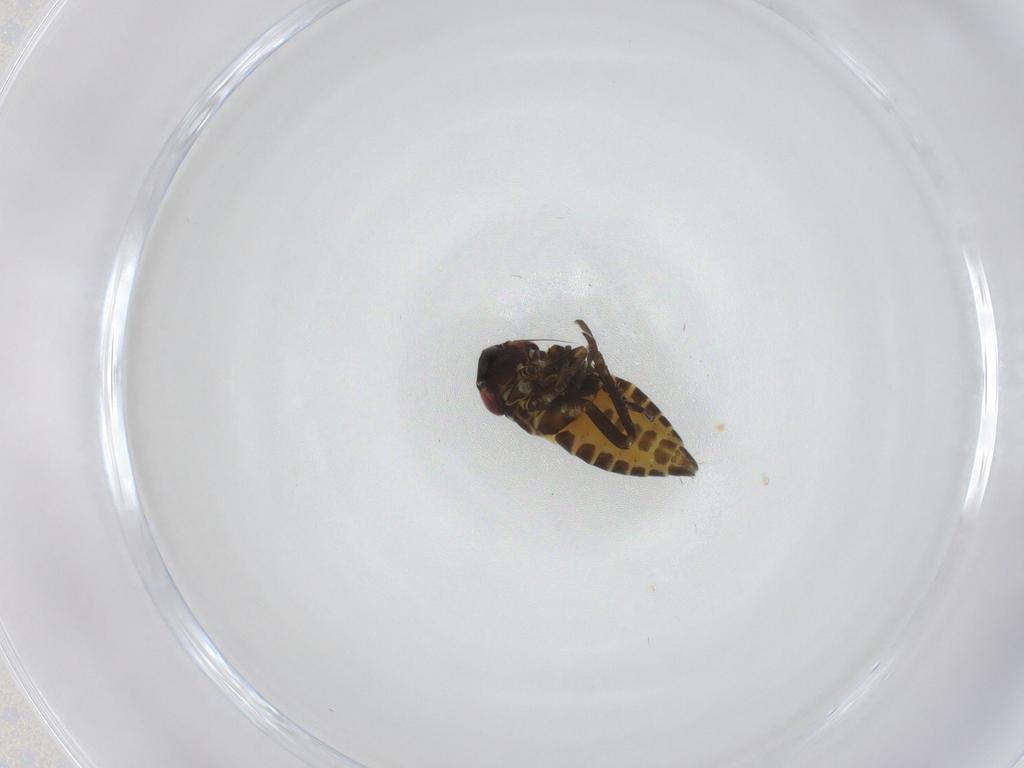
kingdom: Animalia
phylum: Arthropoda
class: Insecta
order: Hemiptera
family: Cicadellidae
